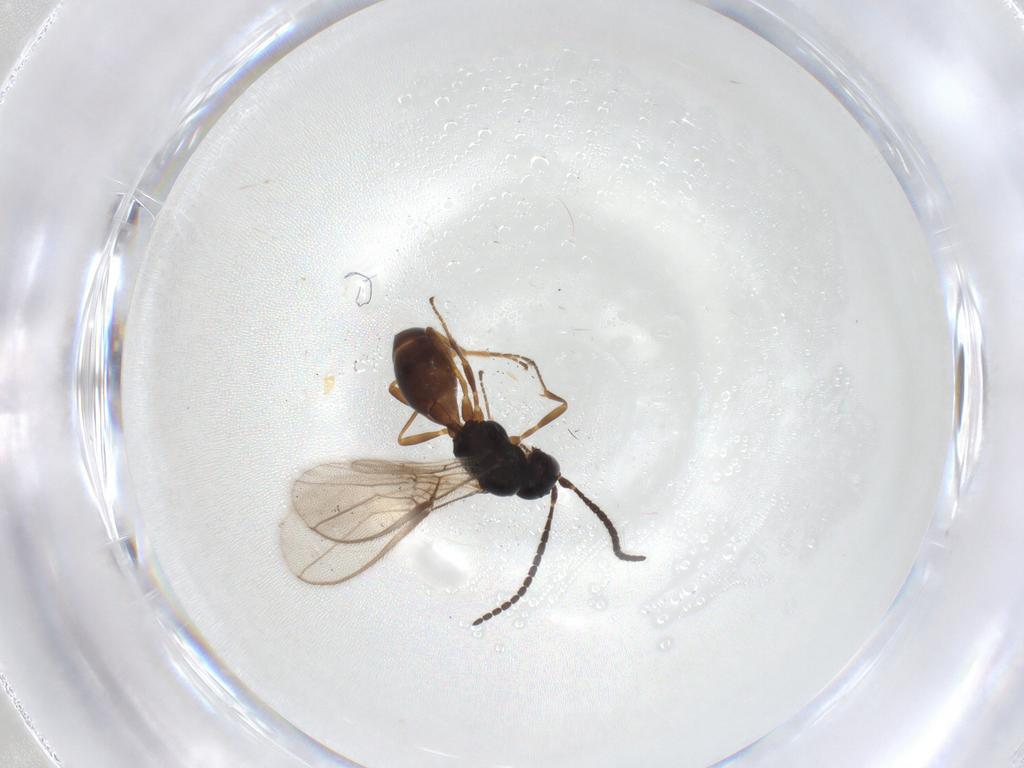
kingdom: Animalia
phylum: Arthropoda
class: Insecta
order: Hymenoptera
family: Braconidae
